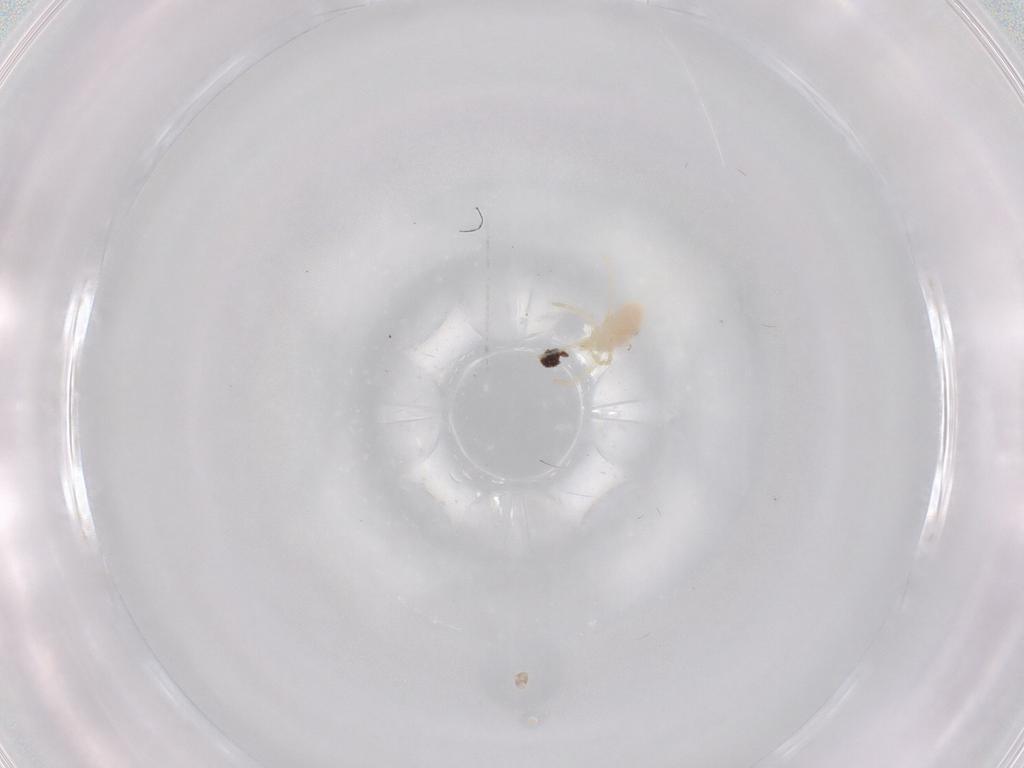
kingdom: Animalia
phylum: Arthropoda
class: Arachnida
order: Trombidiformes
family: Trombidiidae
